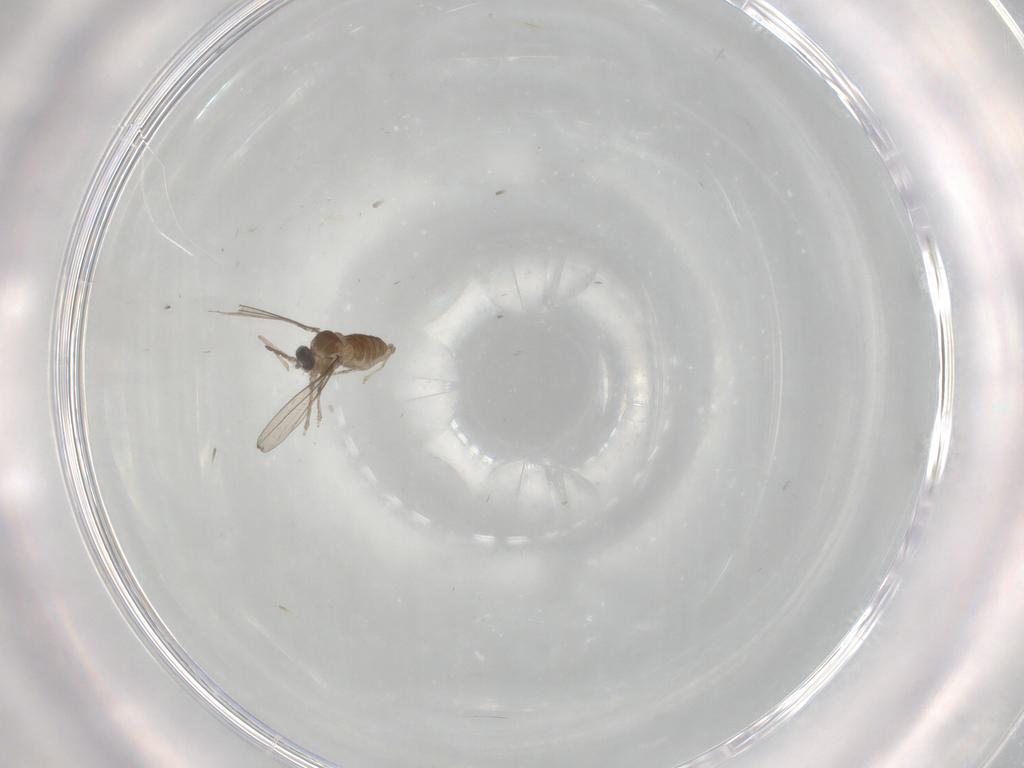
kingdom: Animalia
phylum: Arthropoda
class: Insecta
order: Diptera
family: Cecidomyiidae
